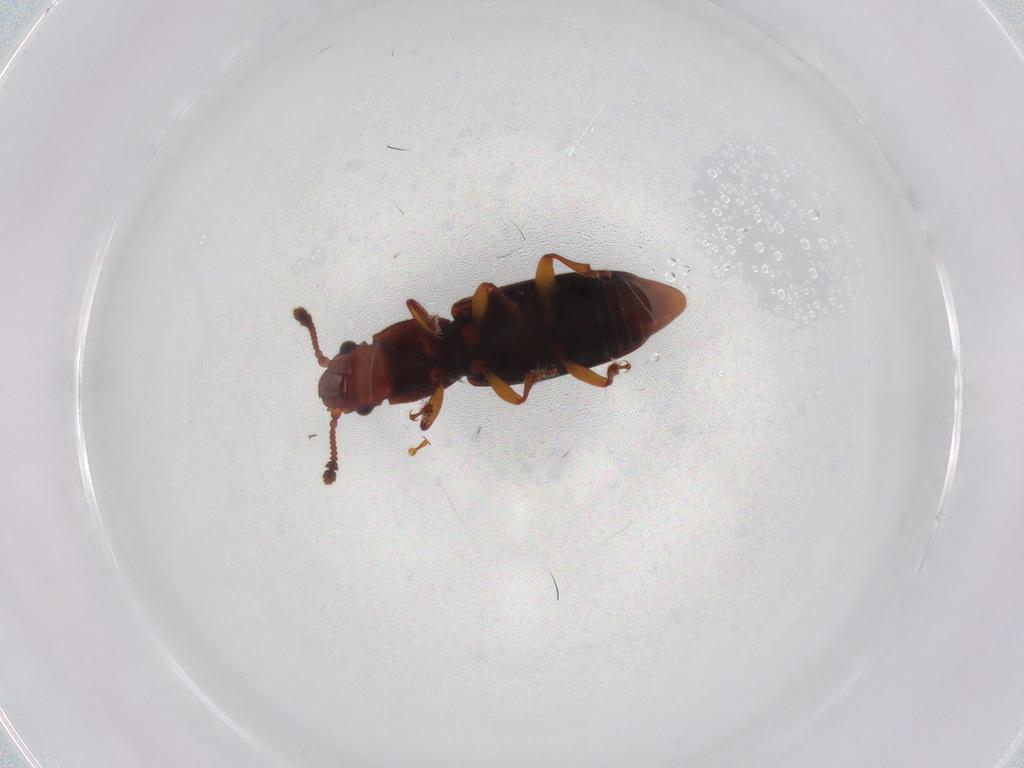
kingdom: Animalia
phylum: Arthropoda
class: Insecta
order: Coleoptera
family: Monotomidae
